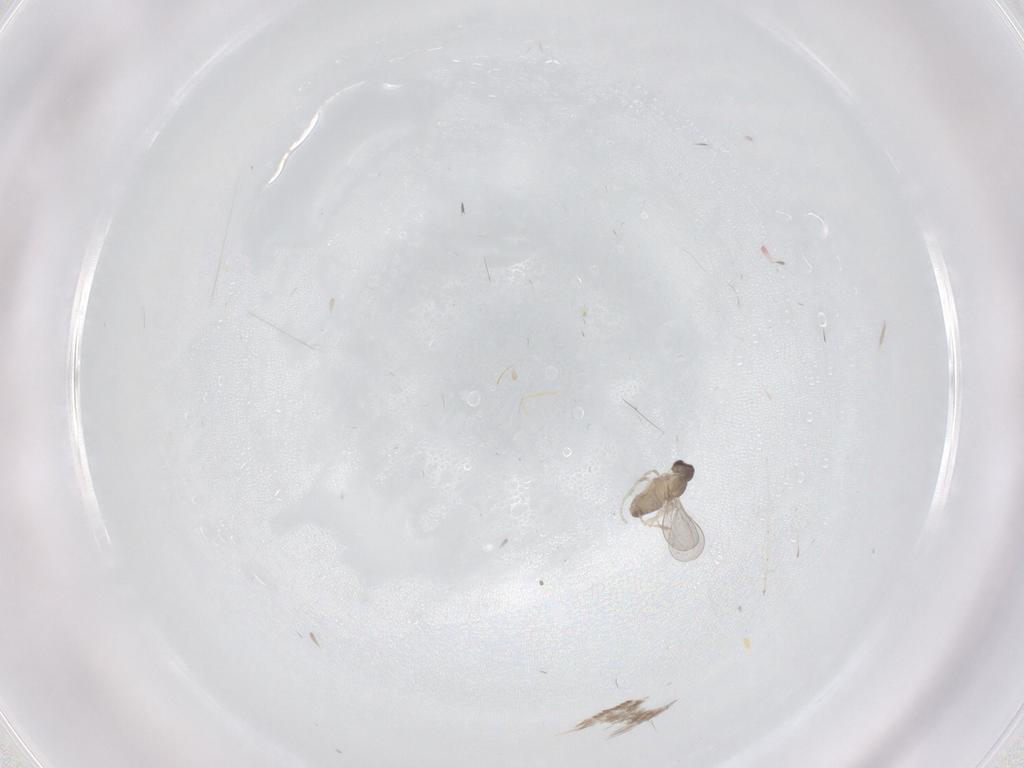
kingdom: Animalia
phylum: Arthropoda
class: Insecta
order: Diptera
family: Cecidomyiidae
